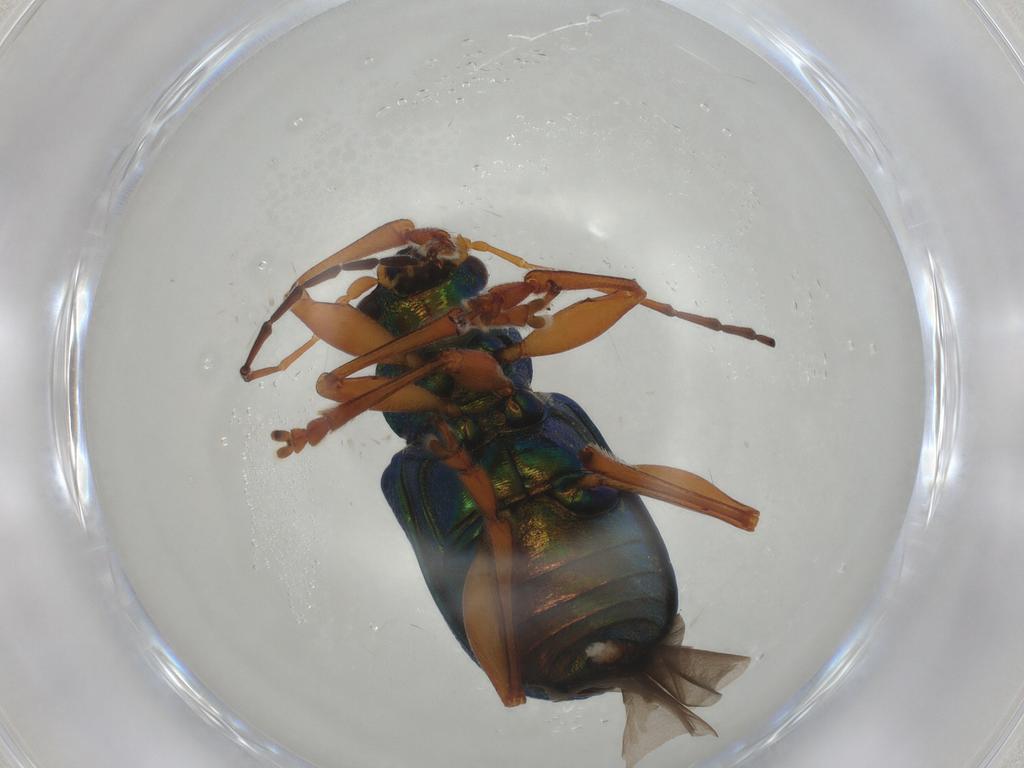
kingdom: Animalia
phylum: Arthropoda
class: Insecta
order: Coleoptera
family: Chrysomelidae
